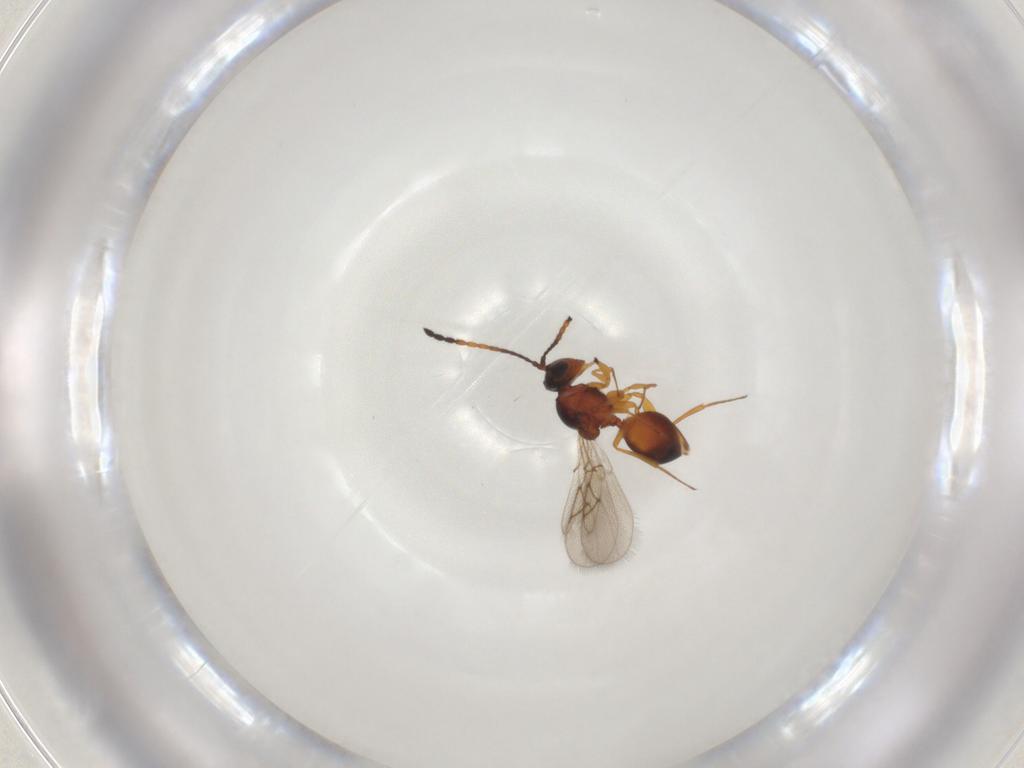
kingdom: Animalia
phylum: Arthropoda
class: Insecta
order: Hymenoptera
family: Figitidae
